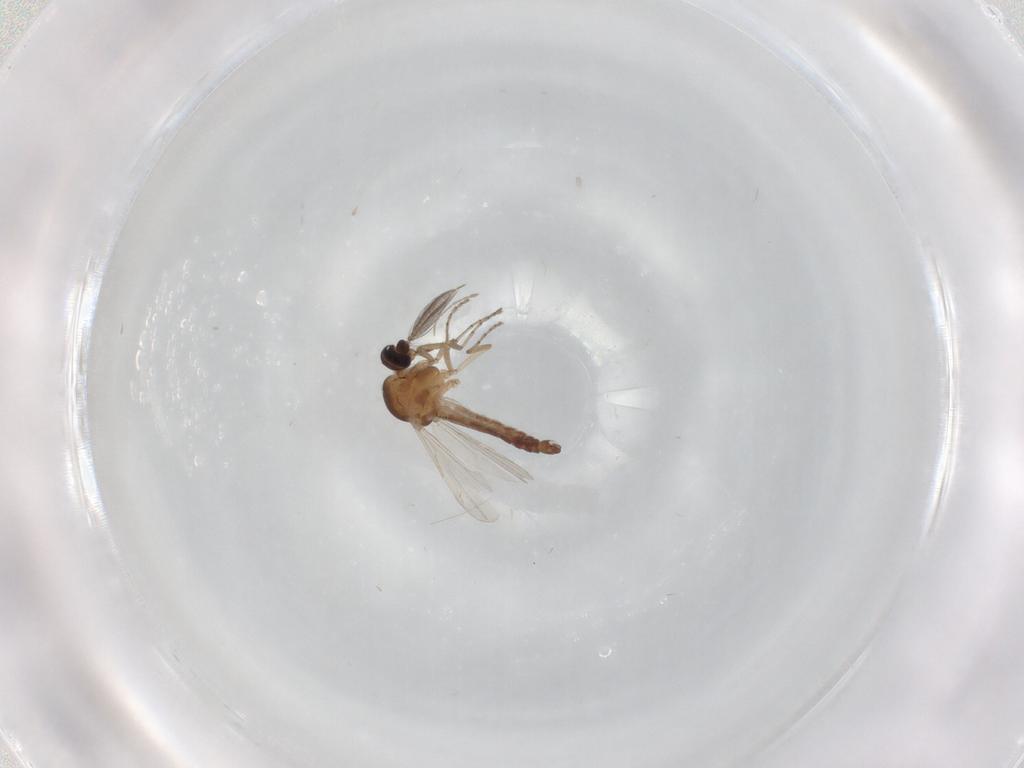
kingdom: Animalia
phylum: Arthropoda
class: Insecta
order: Diptera
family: Ceratopogonidae
